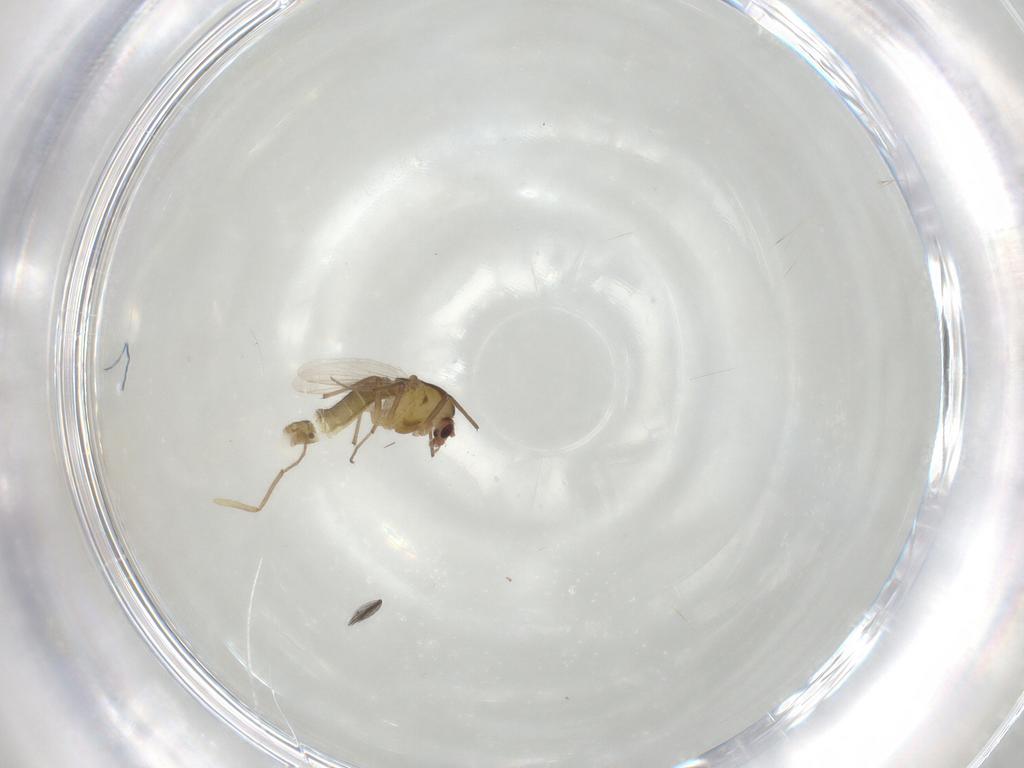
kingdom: Animalia
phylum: Arthropoda
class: Insecta
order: Diptera
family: Chironomidae
